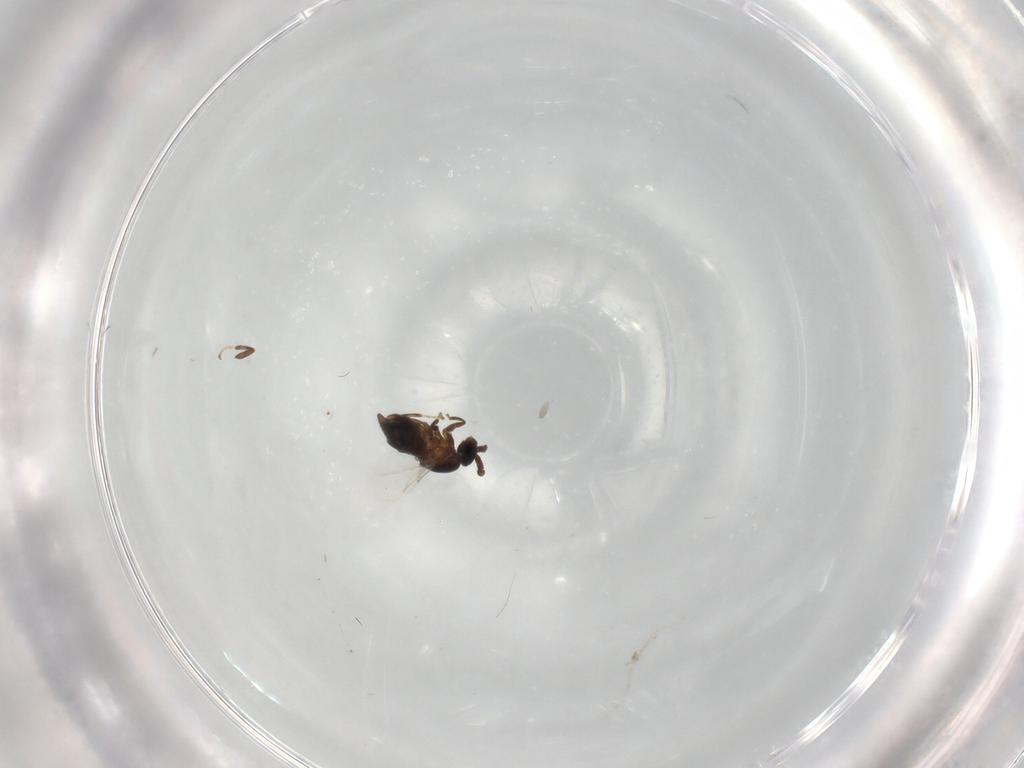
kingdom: Animalia
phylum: Arthropoda
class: Insecta
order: Diptera
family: Scatopsidae
